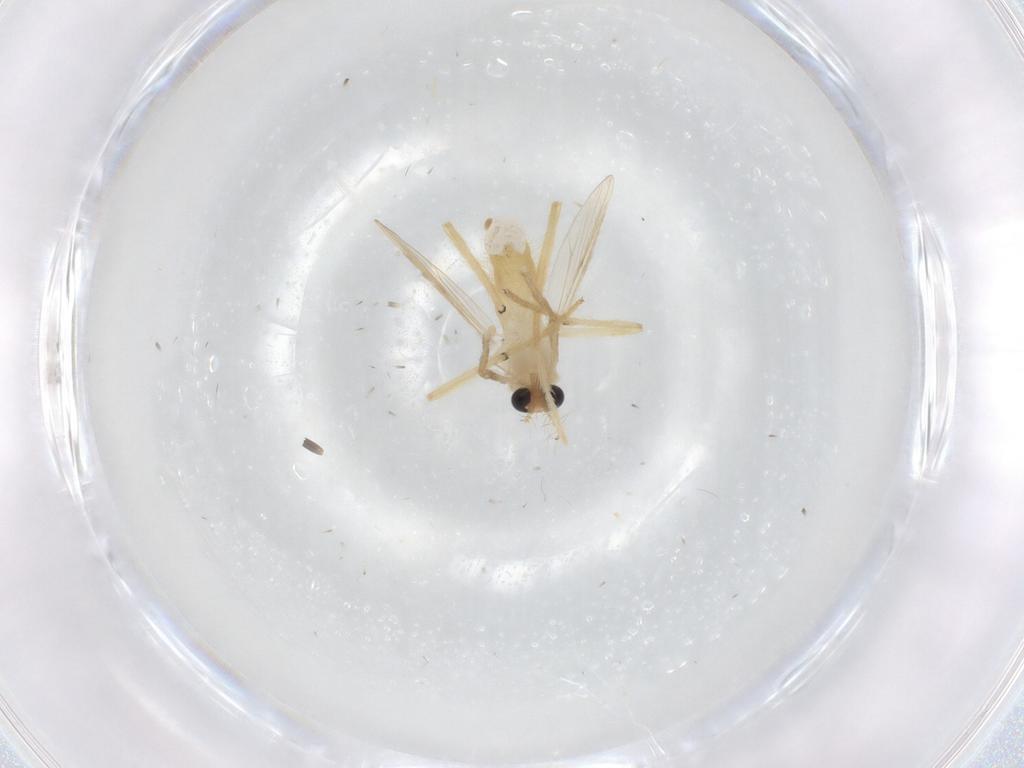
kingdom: Animalia
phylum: Arthropoda
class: Insecta
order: Diptera
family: Chironomidae
